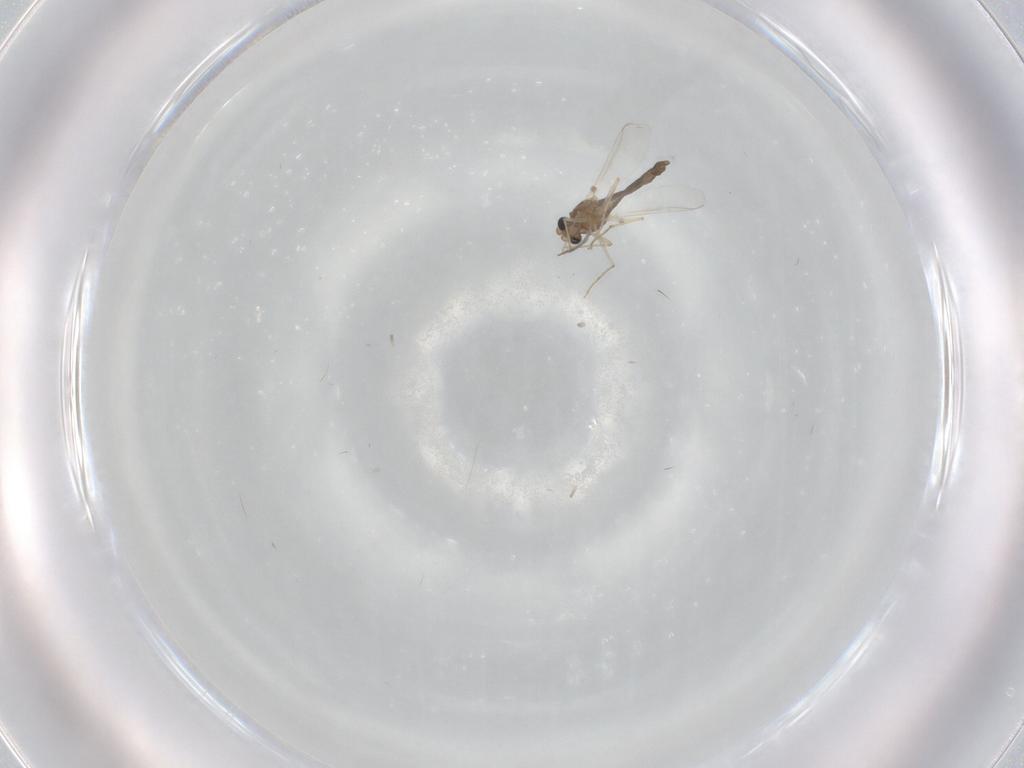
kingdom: Animalia
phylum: Arthropoda
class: Insecta
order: Diptera
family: Chironomidae
